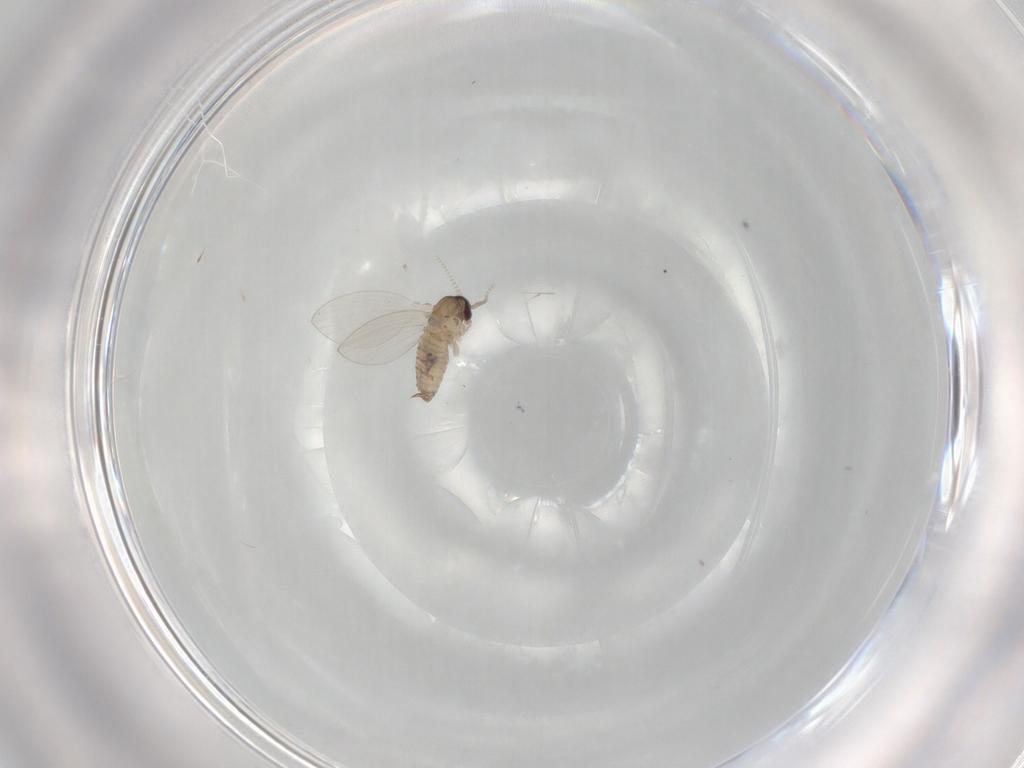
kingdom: Animalia
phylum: Arthropoda
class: Insecta
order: Diptera
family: Psychodidae
